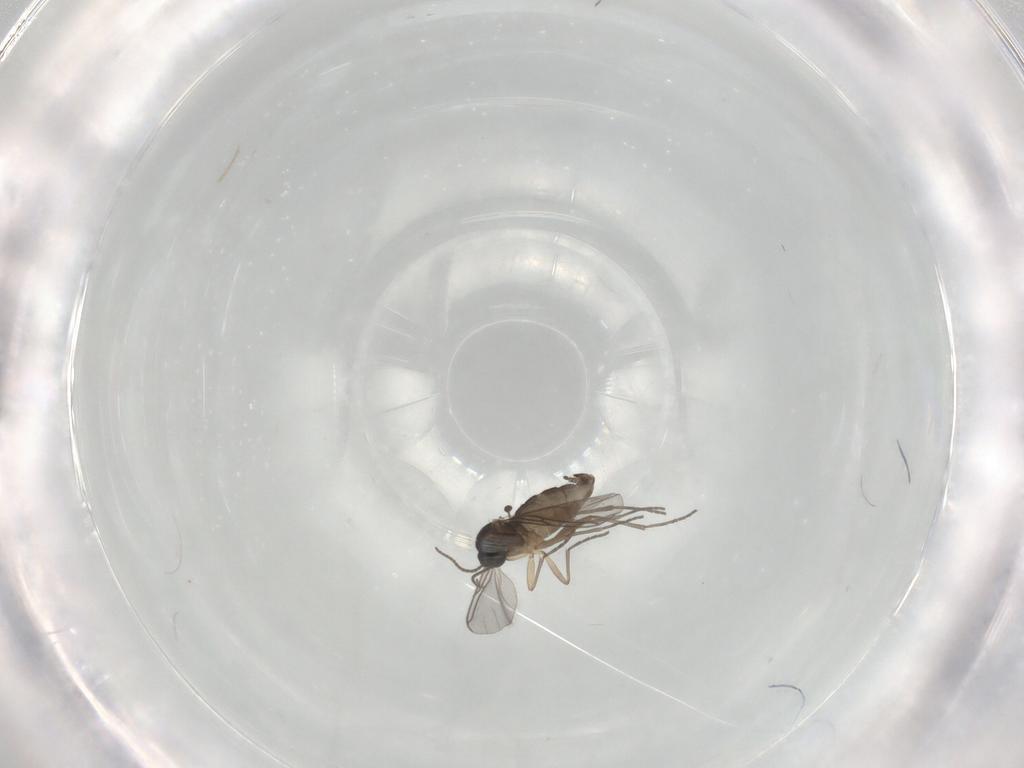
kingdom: Animalia
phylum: Arthropoda
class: Insecta
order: Diptera
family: Sciaridae
